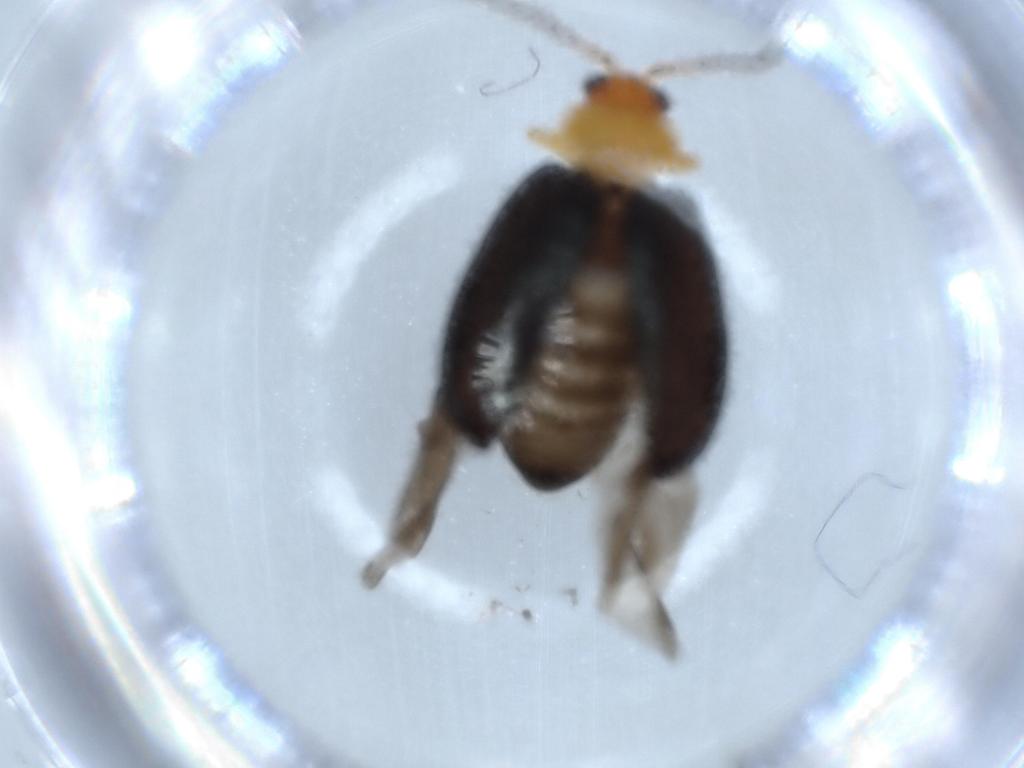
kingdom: Animalia
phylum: Arthropoda
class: Insecta
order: Coleoptera
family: Chrysomelidae
